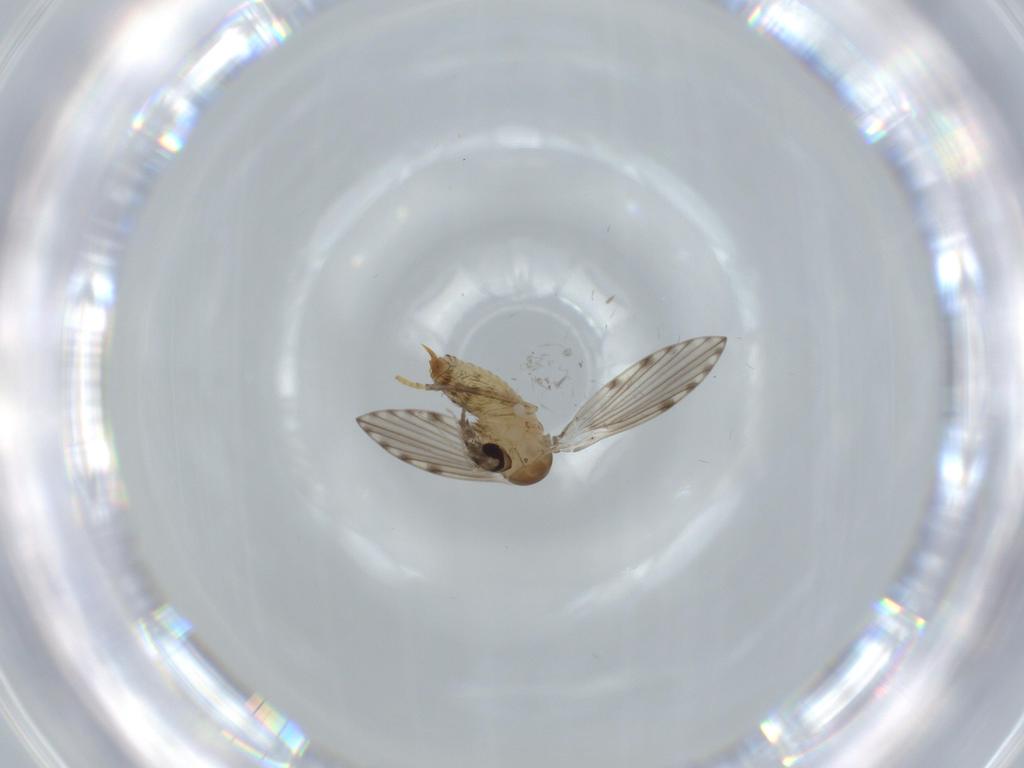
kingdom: Animalia
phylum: Arthropoda
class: Insecta
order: Diptera
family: Psychodidae
